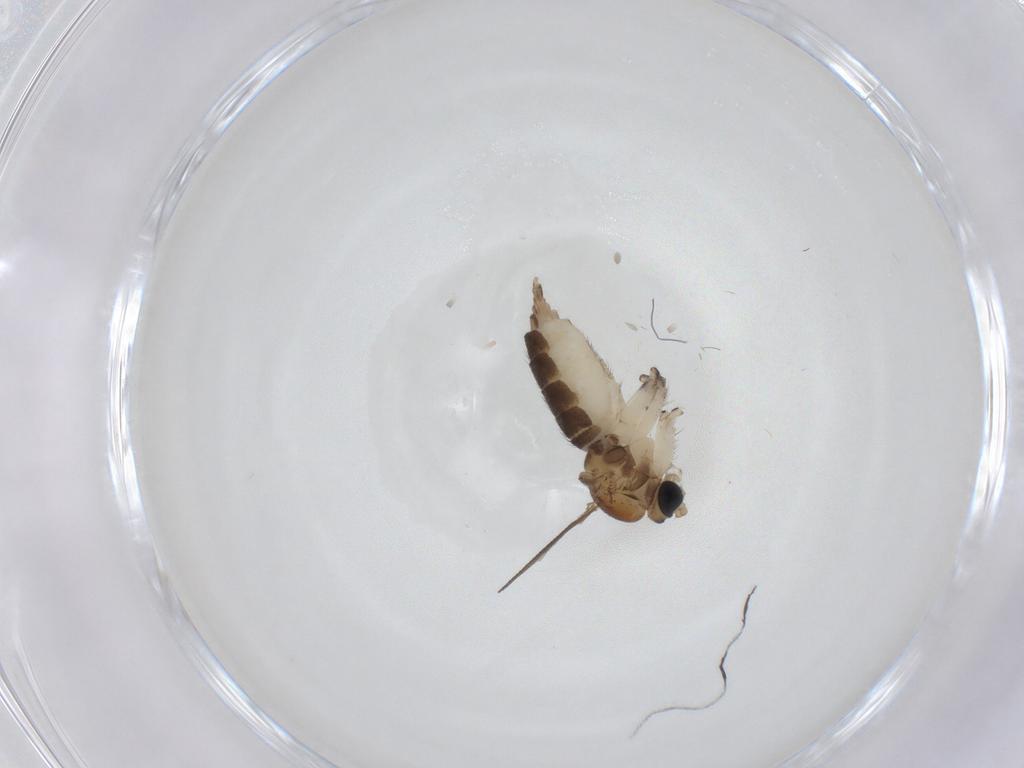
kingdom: Animalia
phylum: Arthropoda
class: Insecta
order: Diptera
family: Sciaridae
